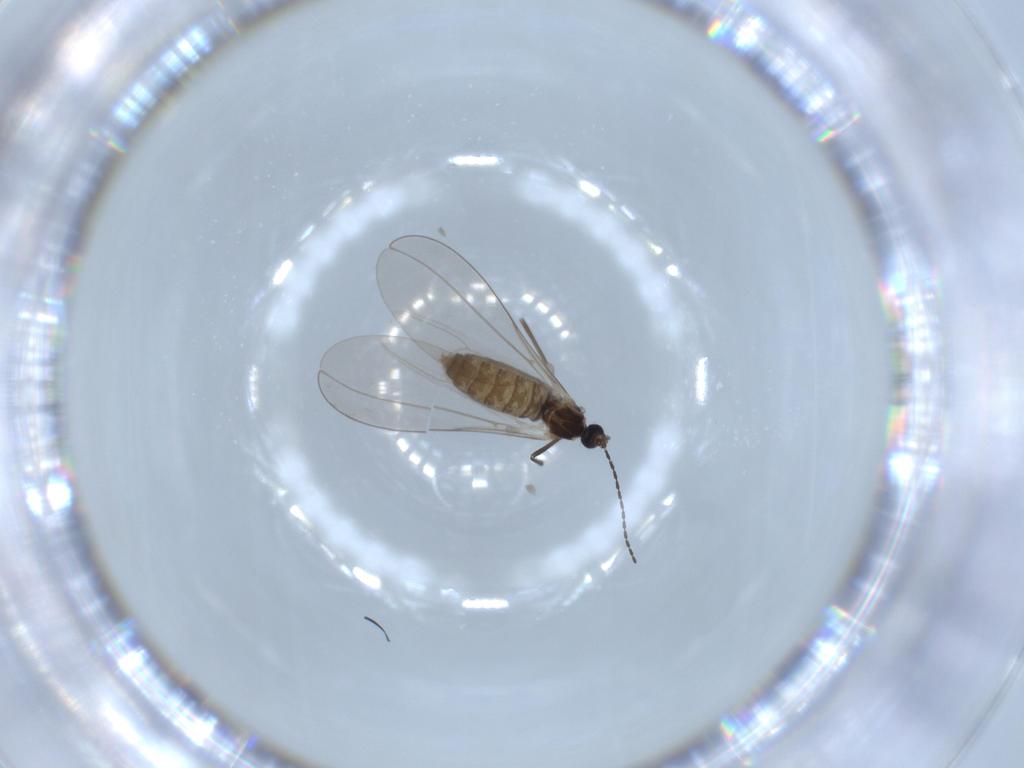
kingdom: Animalia
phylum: Arthropoda
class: Insecta
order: Diptera
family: Cecidomyiidae
